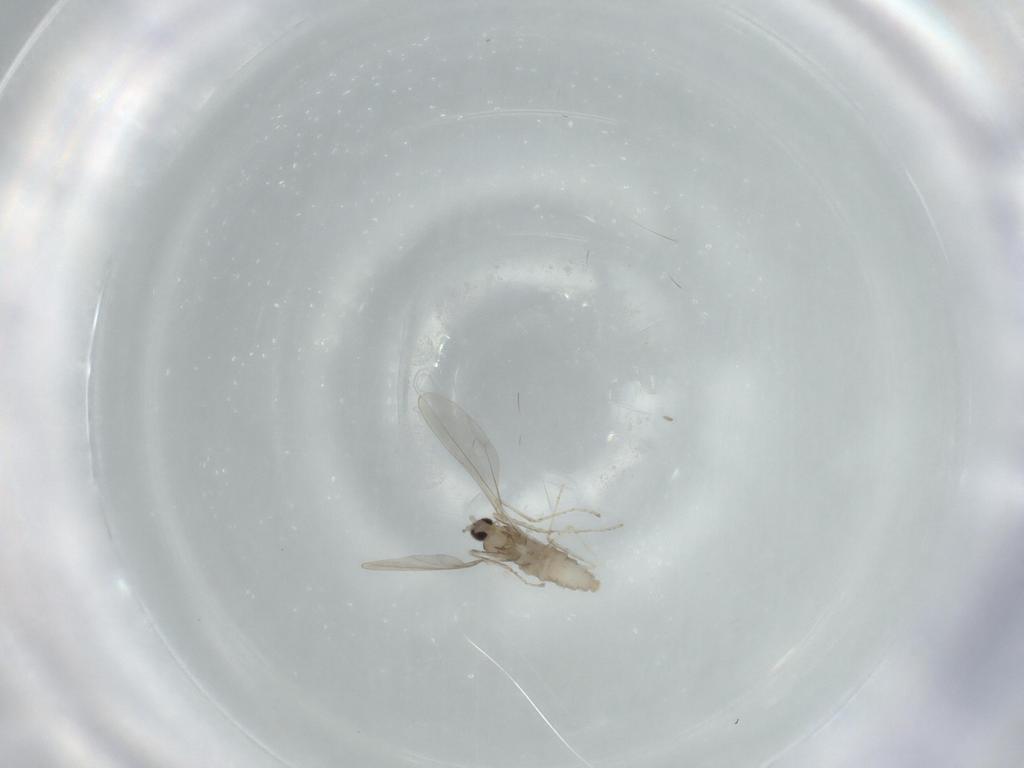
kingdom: Animalia
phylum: Arthropoda
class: Insecta
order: Diptera
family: Cecidomyiidae
